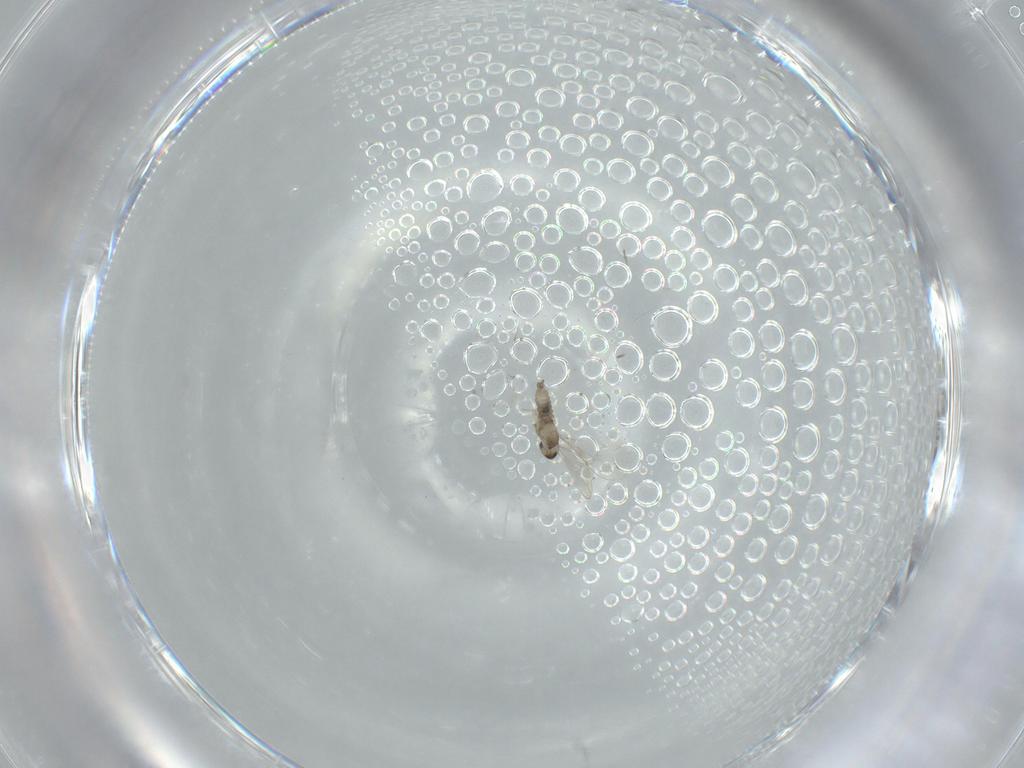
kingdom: Animalia
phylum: Arthropoda
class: Insecta
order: Diptera
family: Cecidomyiidae
